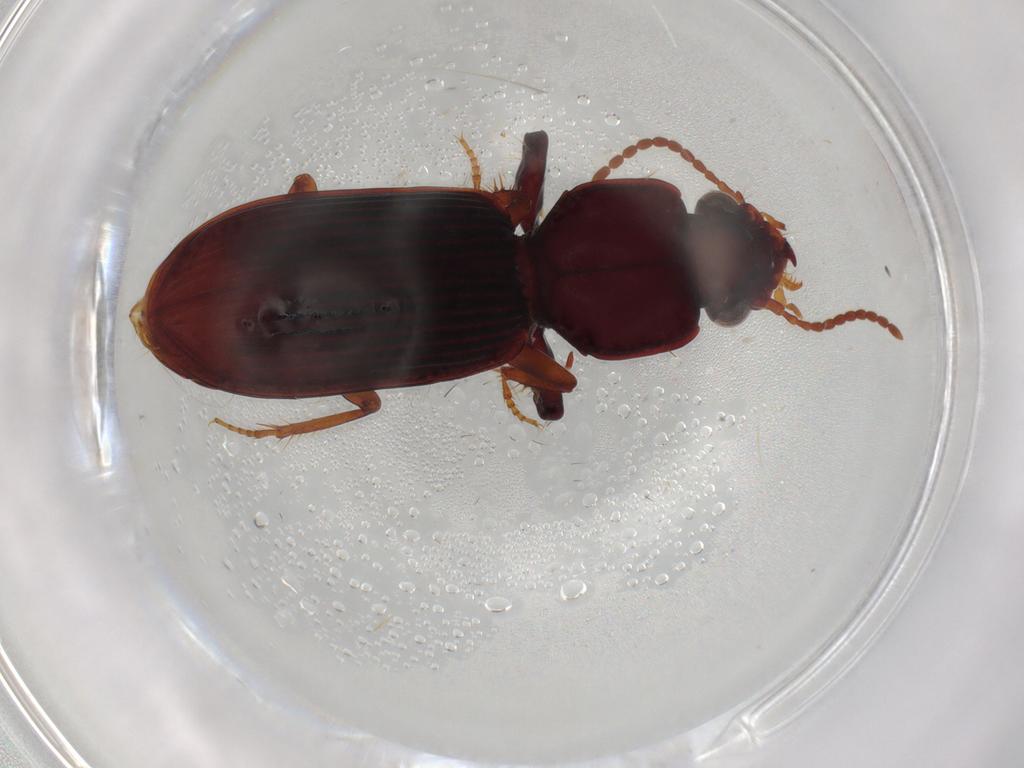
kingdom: Animalia
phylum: Arthropoda
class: Insecta
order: Coleoptera
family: Carabidae
